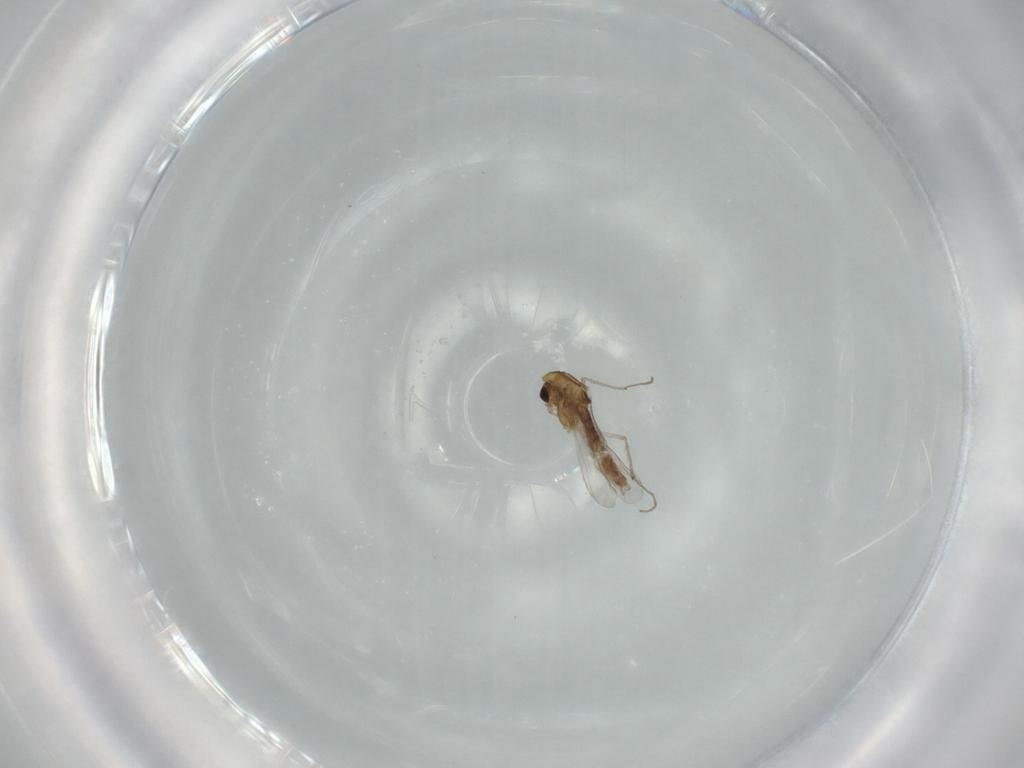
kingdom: Animalia
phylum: Arthropoda
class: Insecta
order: Diptera
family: Chironomidae
